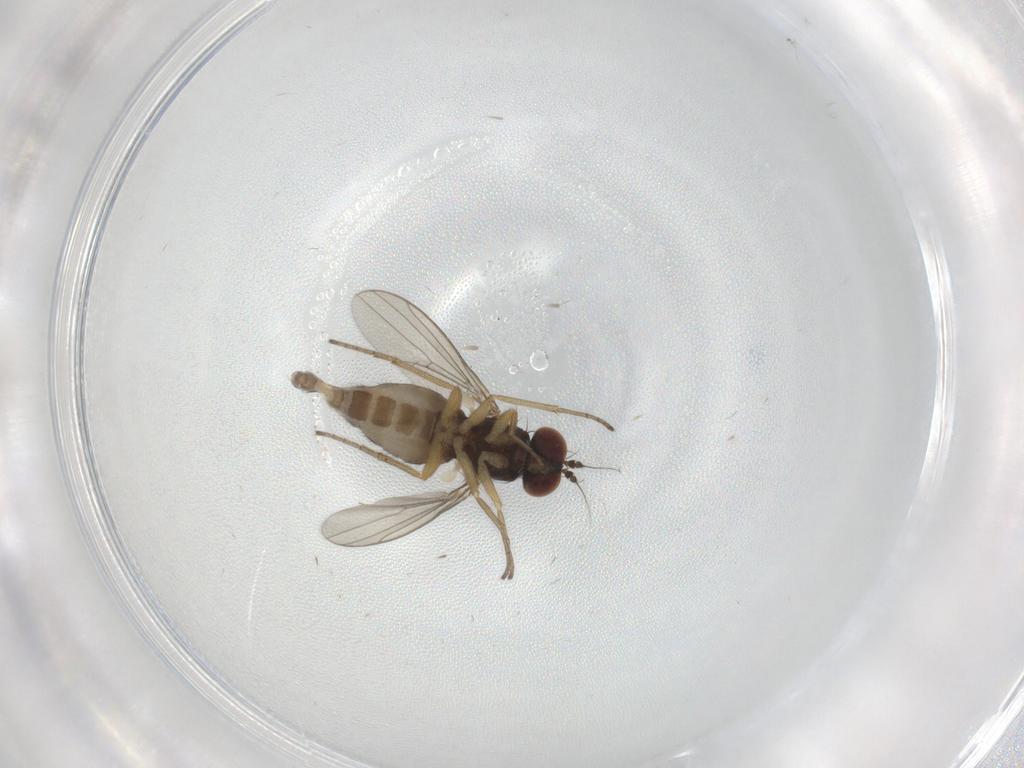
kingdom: Animalia
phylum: Arthropoda
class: Insecta
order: Diptera
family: Dolichopodidae
